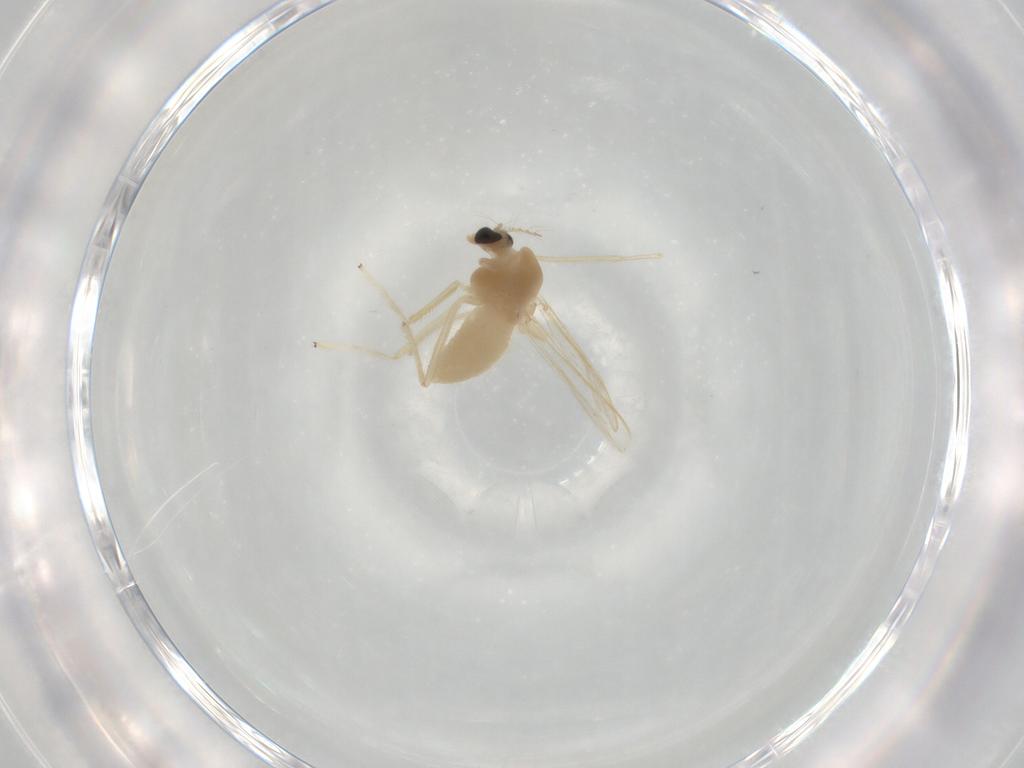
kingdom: Animalia
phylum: Arthropoda
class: Insecta
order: Diptera
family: Chironomidae
